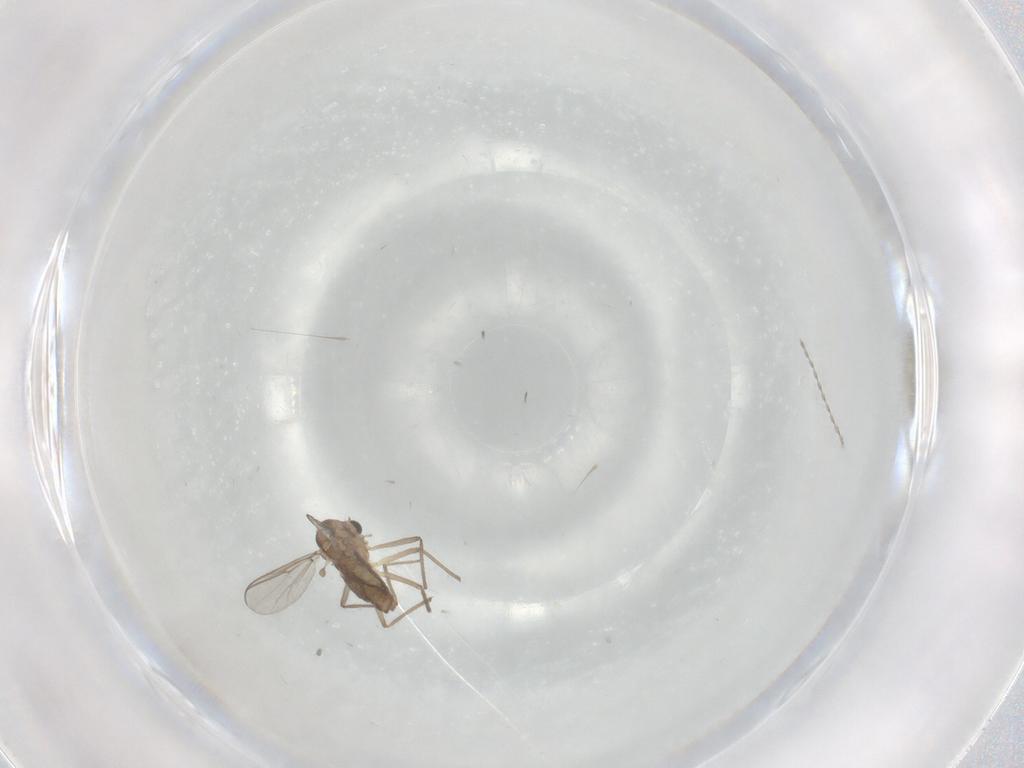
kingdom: Animalia
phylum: Arthropoda
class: Insecta
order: Diptera
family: Chironomidae
